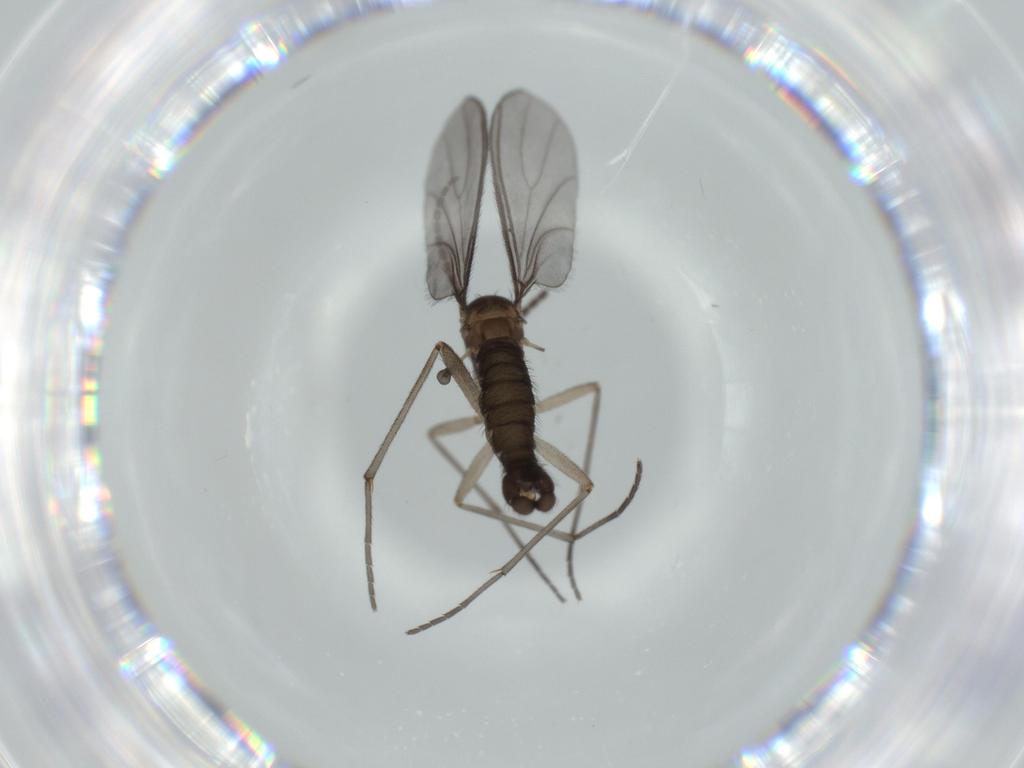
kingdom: Animalia
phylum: Arthropoda
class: Insecta
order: Diptera
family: Sciaridae
